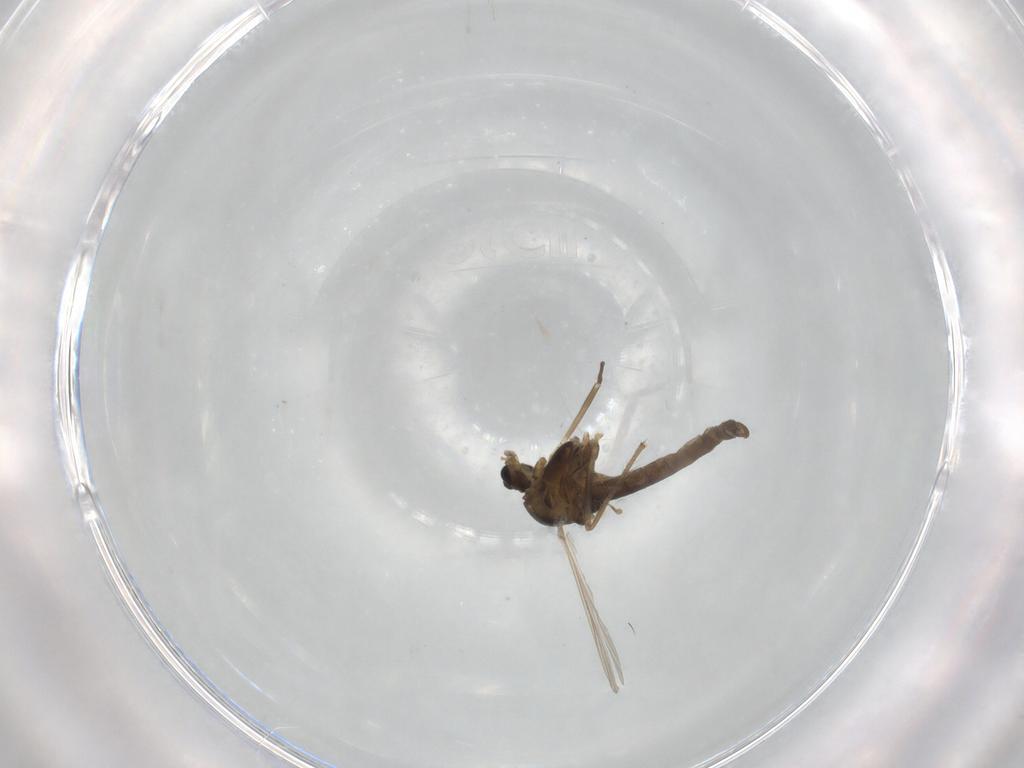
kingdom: Animalia
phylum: Arthropoda
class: Insecta
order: Diptera
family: Chironomidae
